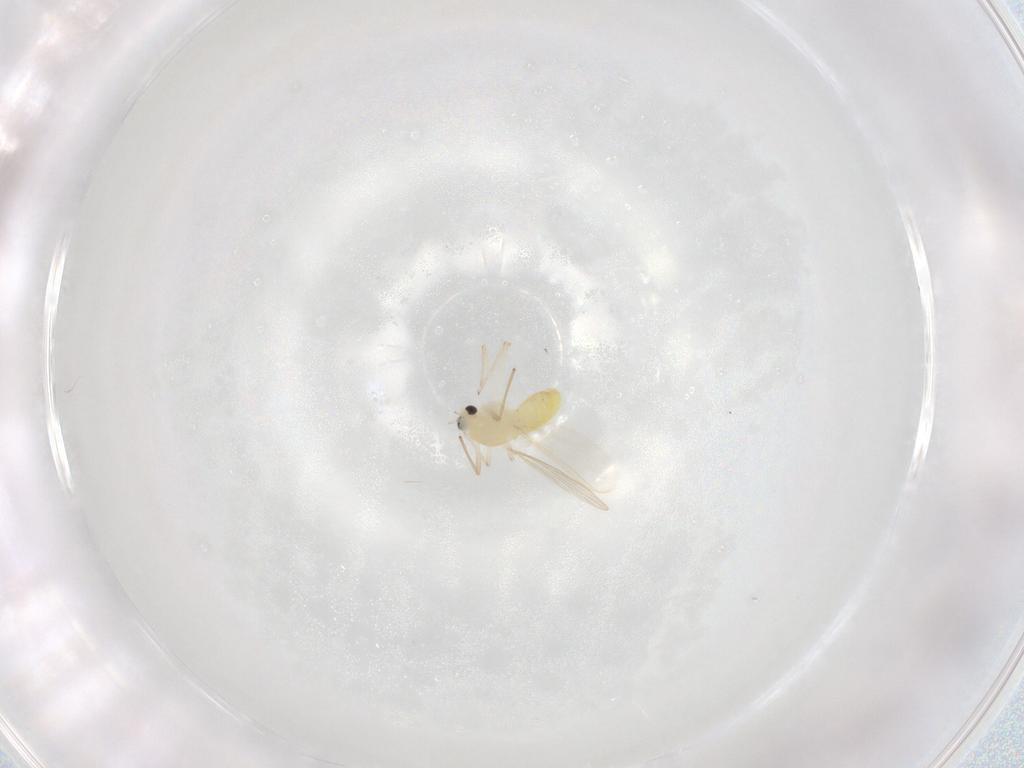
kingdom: Animalia
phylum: Arthropoda
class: Insecta
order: Diptera
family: Chironomidae
